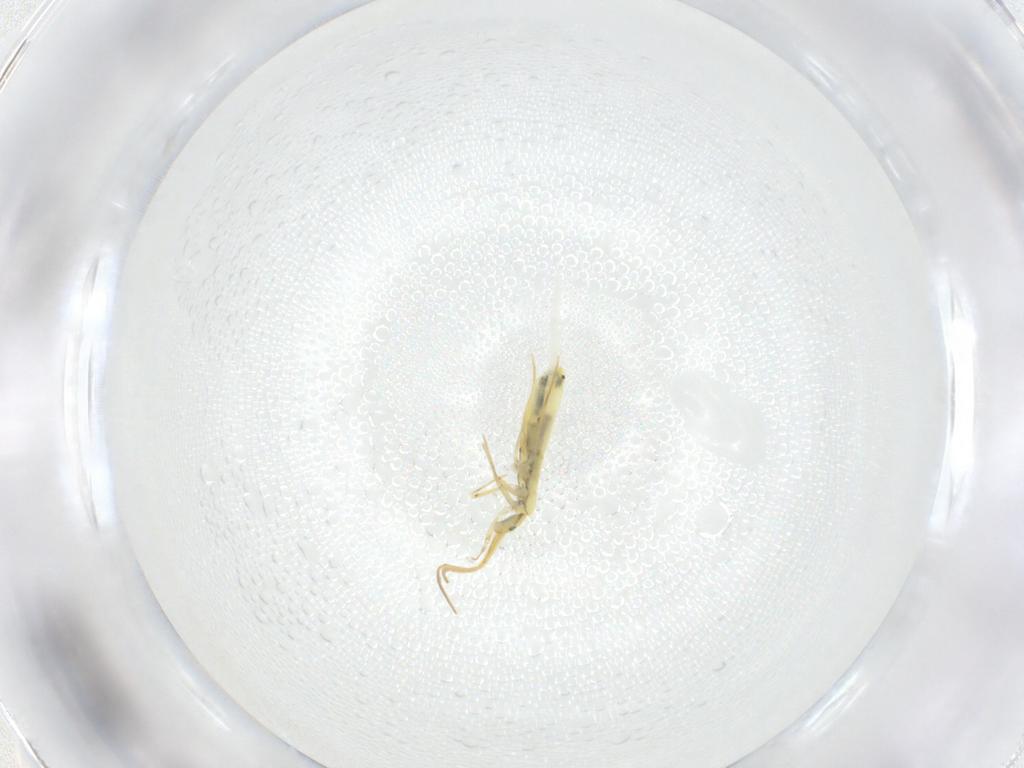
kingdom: Animalia
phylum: Arthropoda
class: Collembola
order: Entomobryomorpha
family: Entomobryidae
